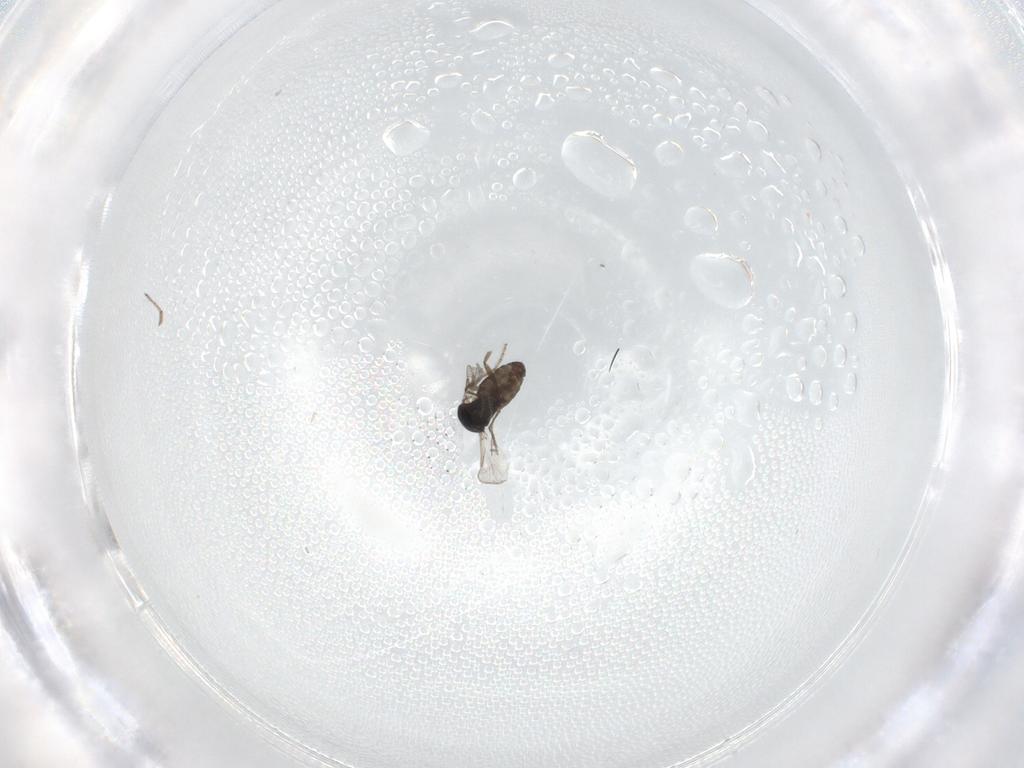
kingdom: Animalia
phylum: Arthropoda
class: Insecta
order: Diptera
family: Ceratopogonidae
